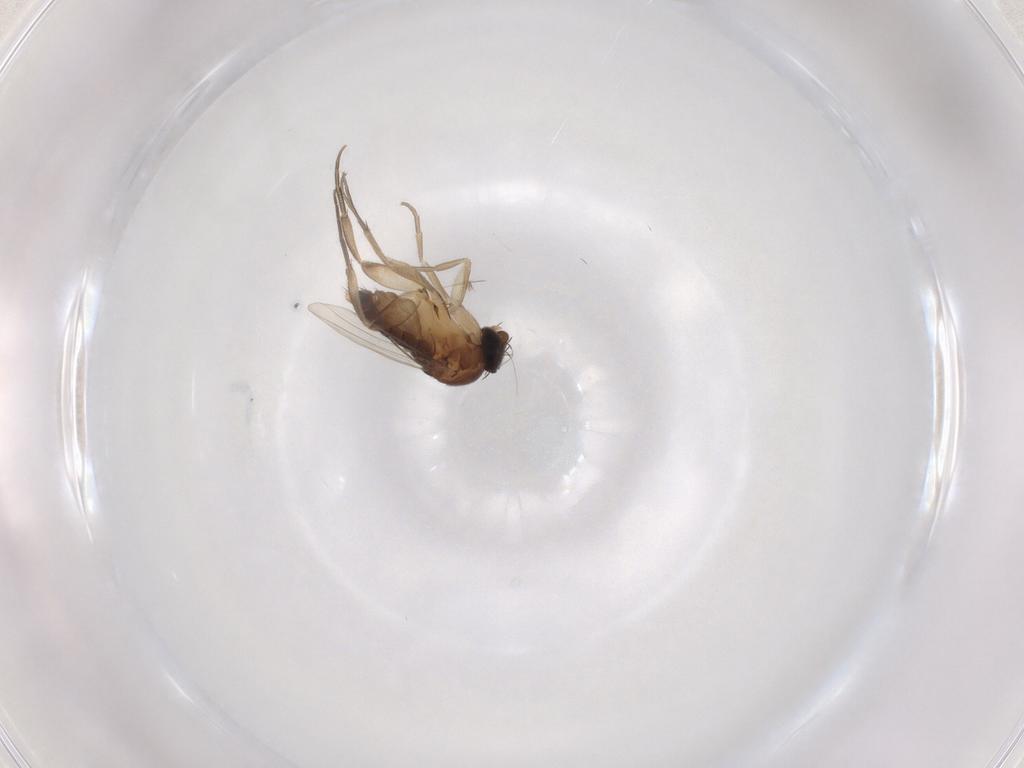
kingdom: Animalia
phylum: Arthropoda
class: Insecta
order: Diptera
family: Phoridae
